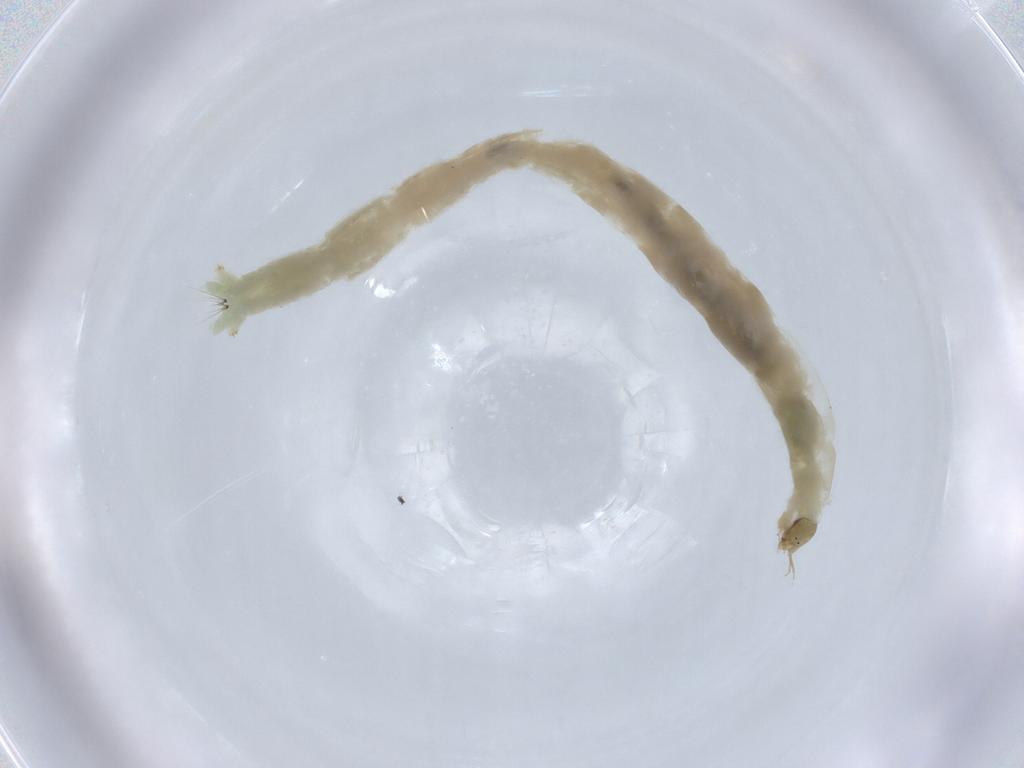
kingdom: Animalia
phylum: Arthropoda
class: Insecta
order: Diptera
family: Chironomidae
